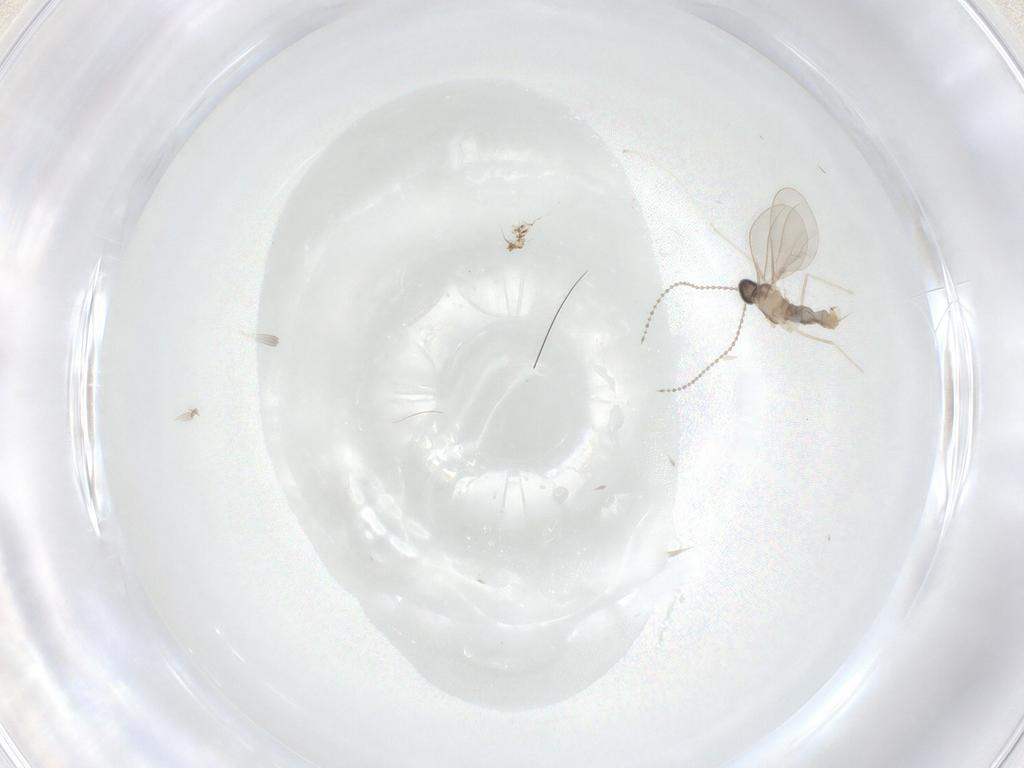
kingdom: Animalia
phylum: Arthropoda
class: Insecta
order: Diptera
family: Cecidomyiidae
